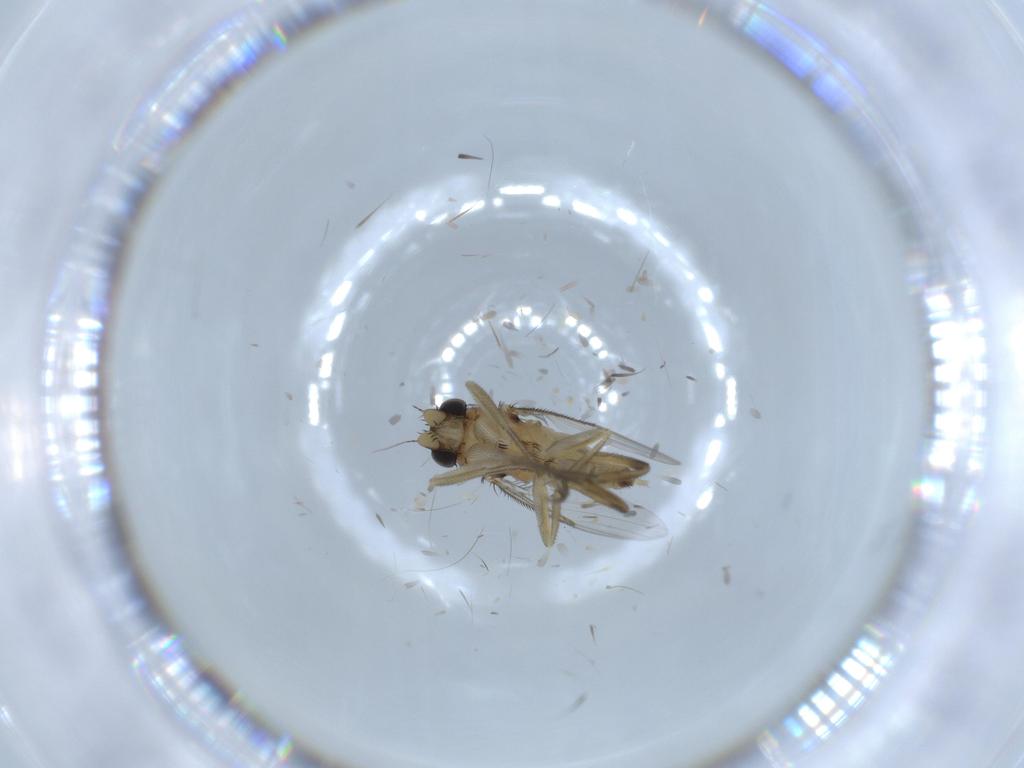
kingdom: Animalia
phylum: Arthropoda
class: Insecta
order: Diptera
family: Phoridae
